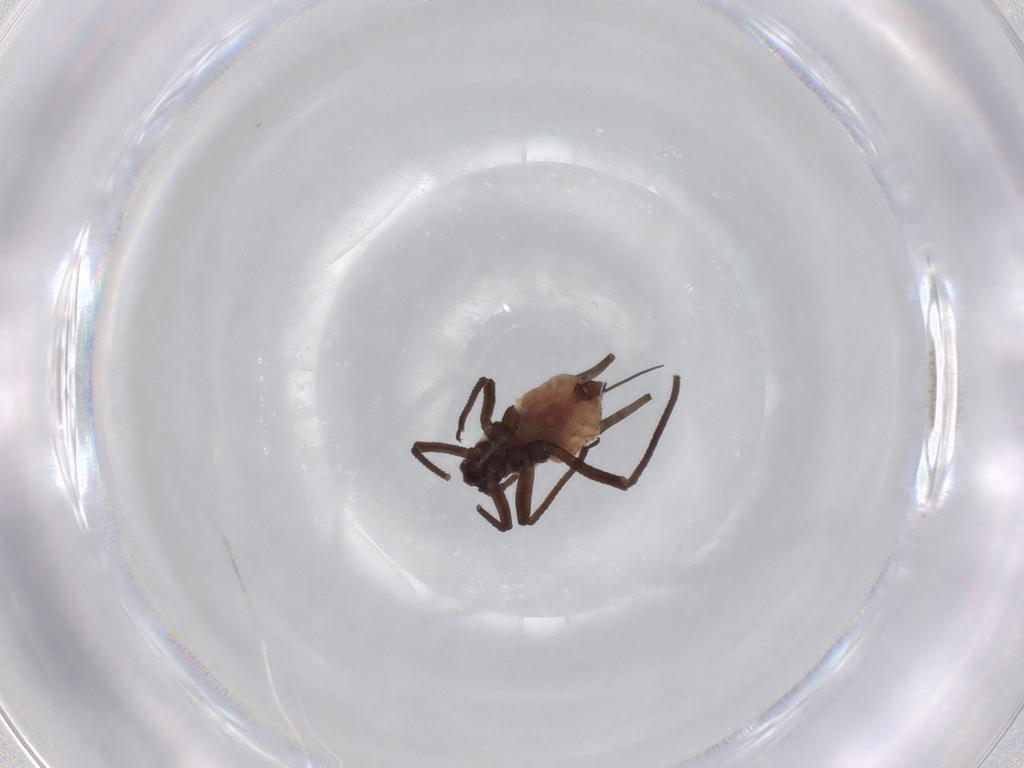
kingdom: Animalia
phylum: Arthropoda
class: Insecta
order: Hemiptera
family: Aphididae
